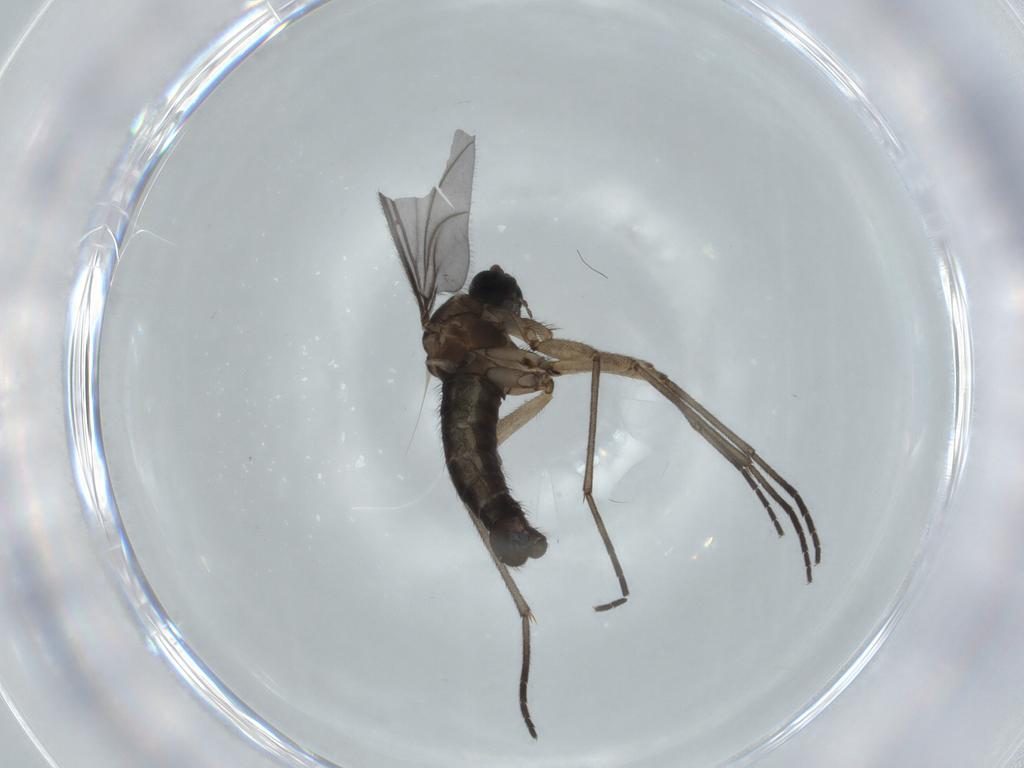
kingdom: Animalia
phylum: Arthropoda
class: Insecta
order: Diptera
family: Sciaridae
